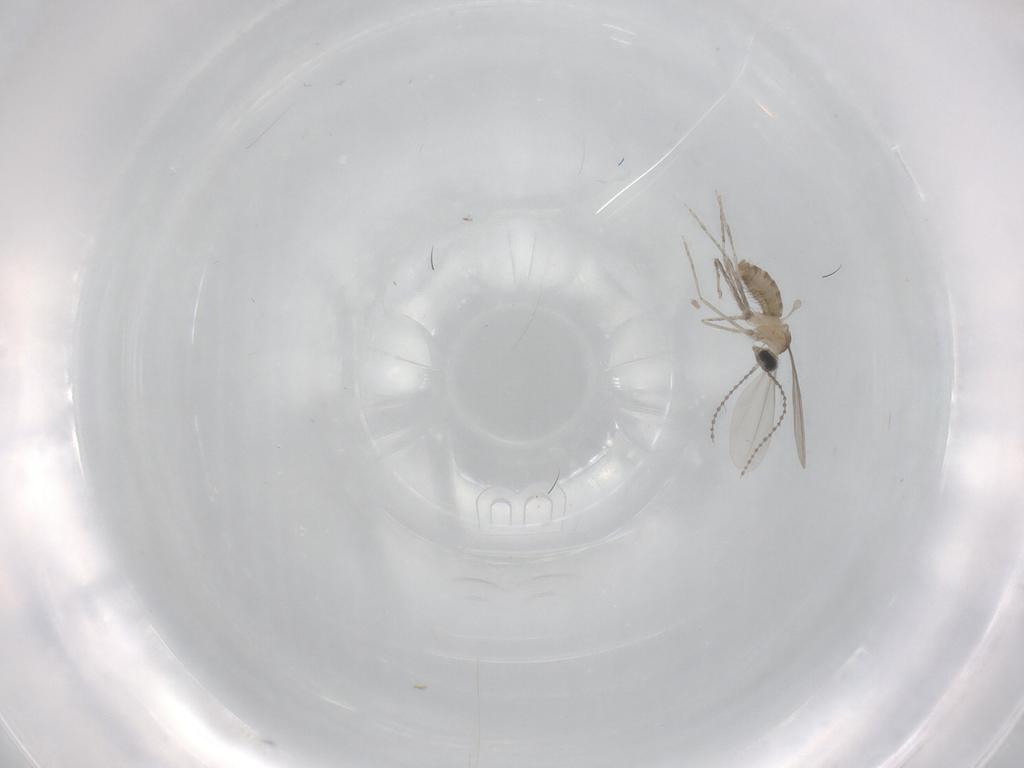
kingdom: Animalia
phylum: Arthropoda
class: Insecta
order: Diptera
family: Cecidomyiidae
